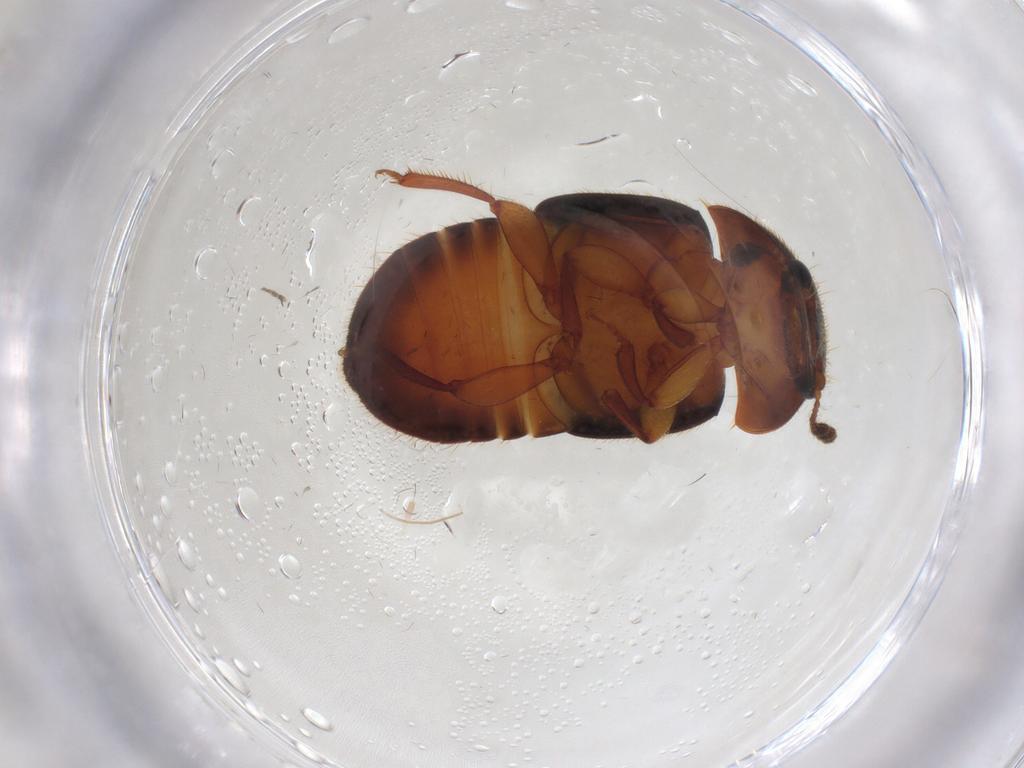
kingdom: Animalia
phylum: Arthropoda
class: Insecta
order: Coleoptera
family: Nitidulidae
